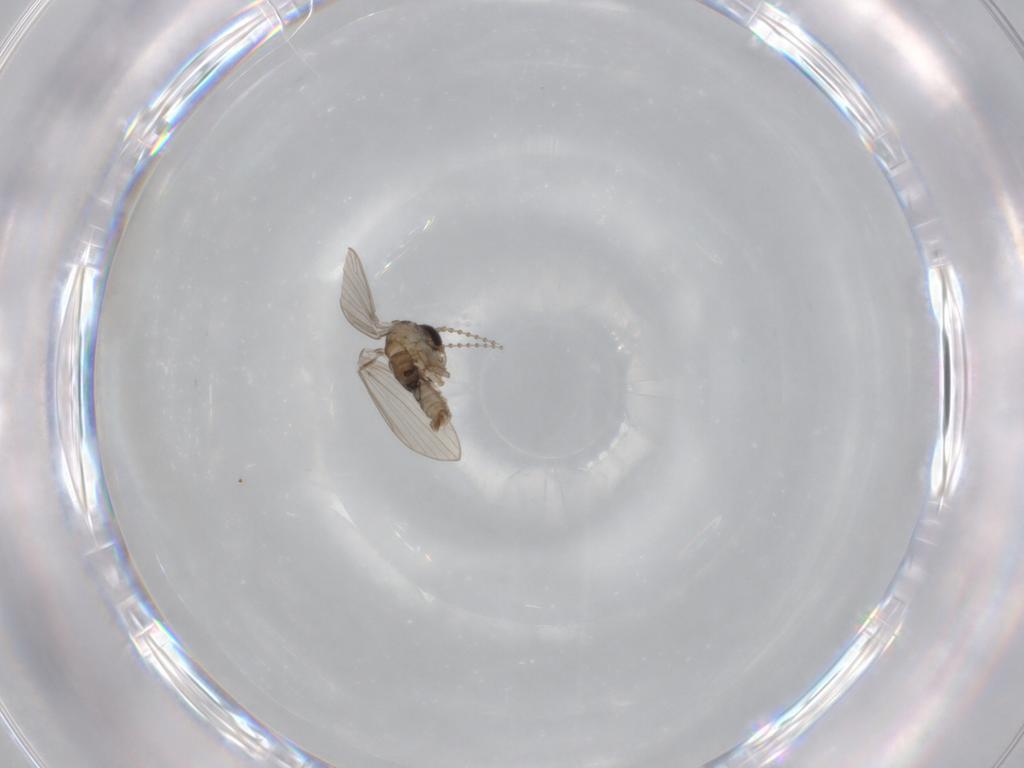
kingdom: Animalia
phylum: Arthropoda
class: Insecta
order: Diptera
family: Psychodidae
